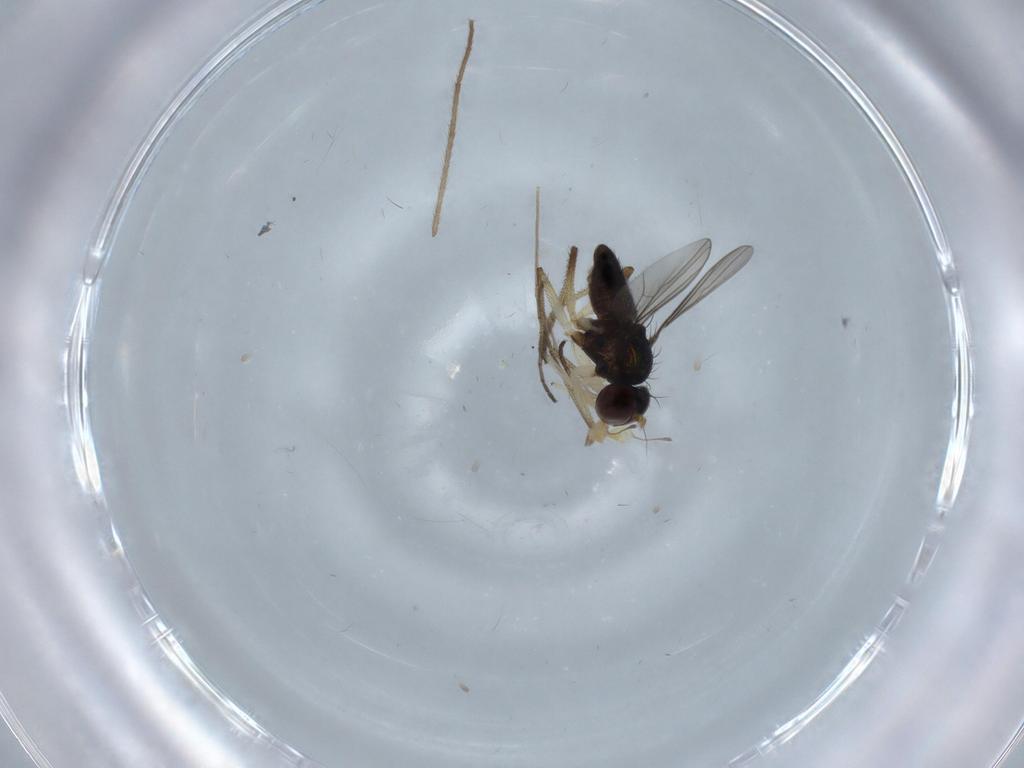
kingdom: Animalia
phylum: Arthropoda
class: Insecta
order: Diptera
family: Dolichopodidae
